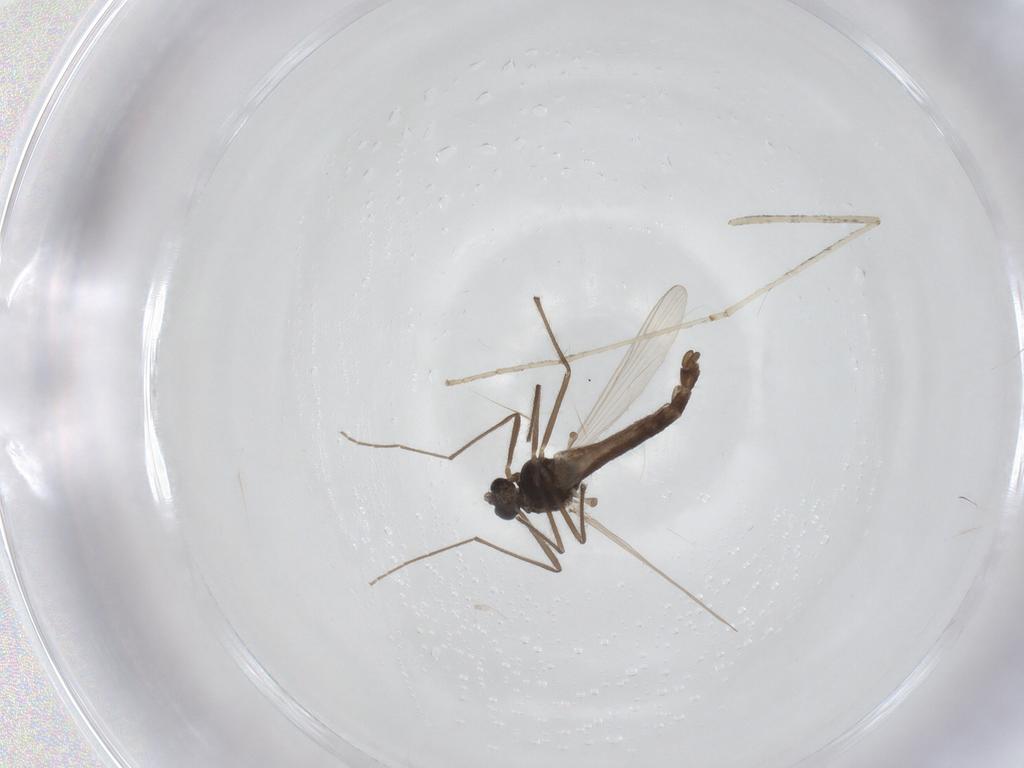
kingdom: Animalia
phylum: Arthropoda
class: Insecta
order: Diptera
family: Chironomidae
